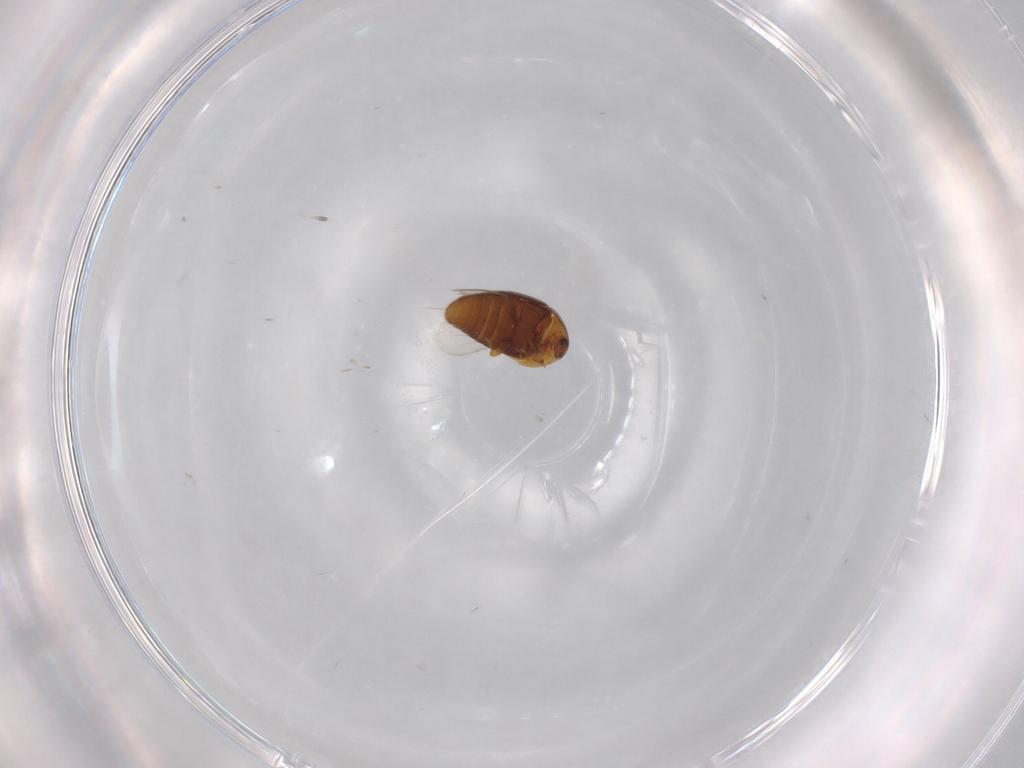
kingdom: Animalia
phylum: Arthropoda
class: Insecta
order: Coleoptera
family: Corylophidae
